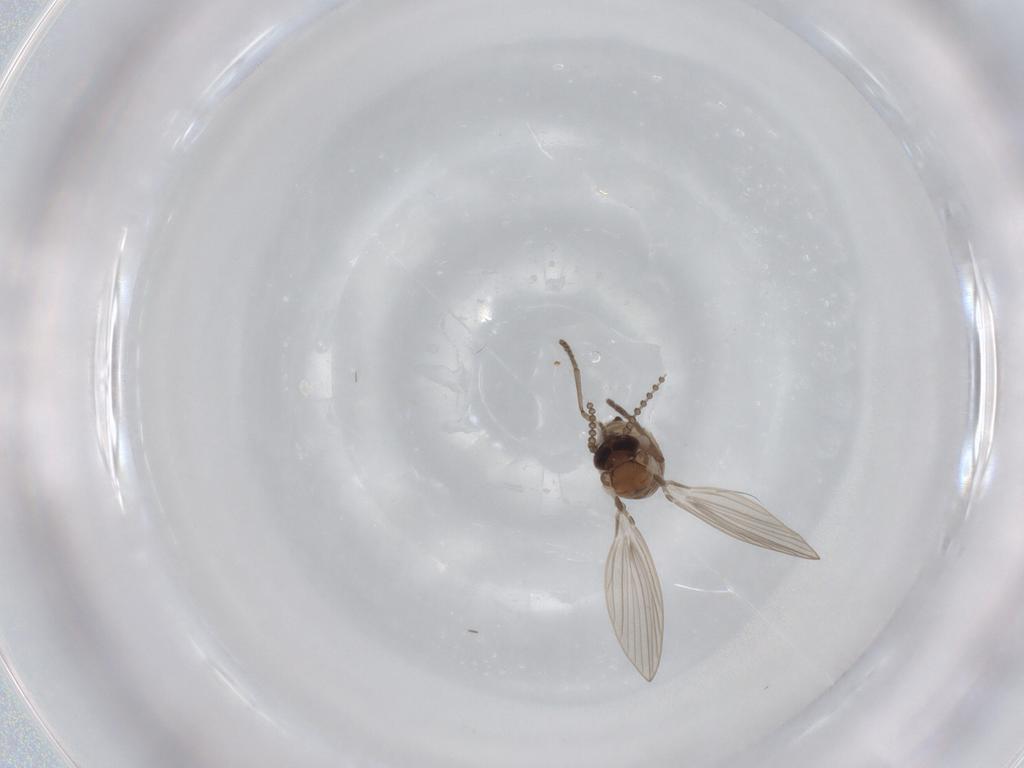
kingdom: Animalia
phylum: Arthropoda
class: Insecta
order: Diptera
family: Psychodidae
